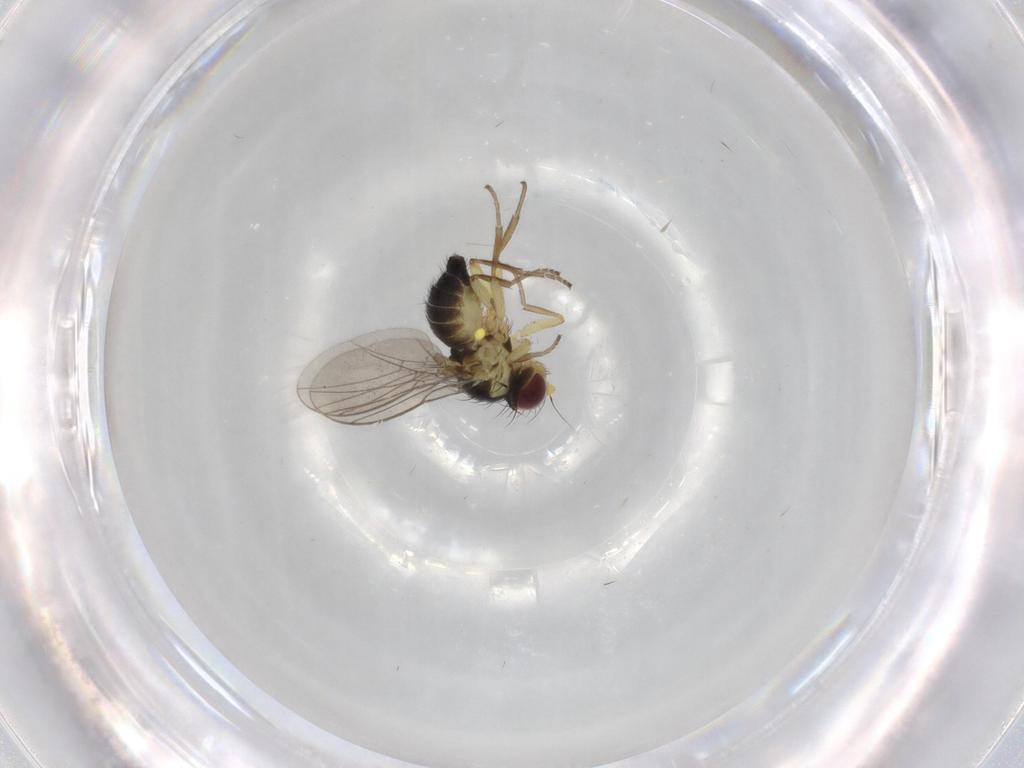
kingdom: Animalia
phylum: Arthropoda
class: Insecta
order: Diptera
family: Agromyzidae
